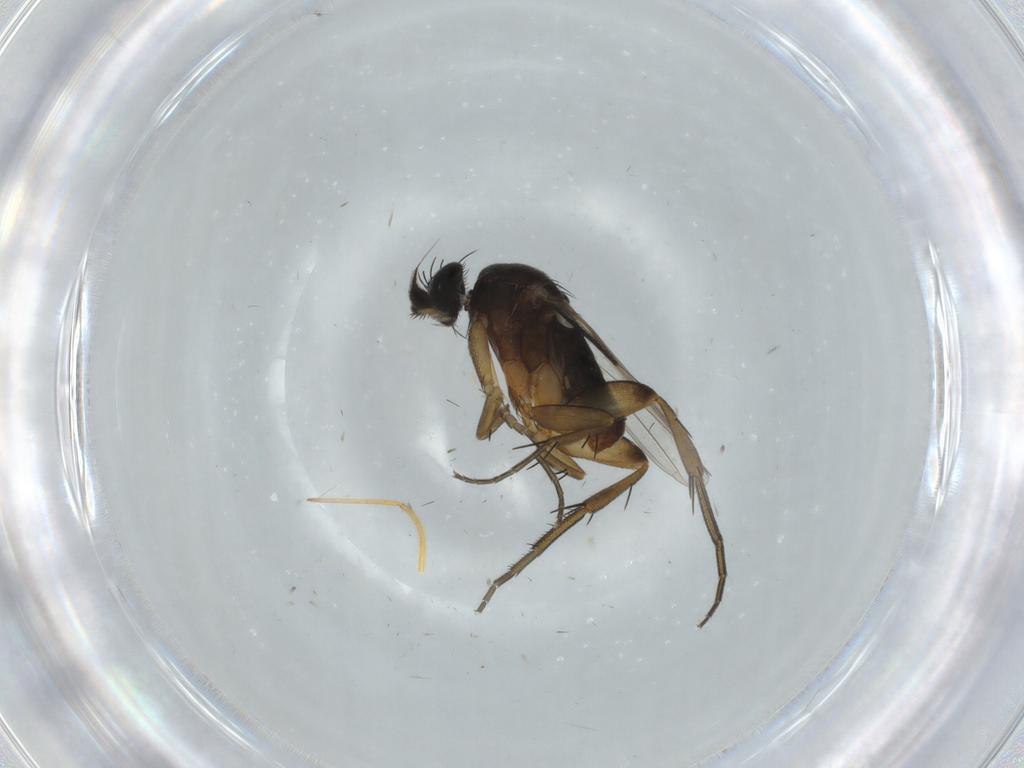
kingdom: Animalia
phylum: Arthropoda
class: Insecta
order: Diptera
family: Phoridae
